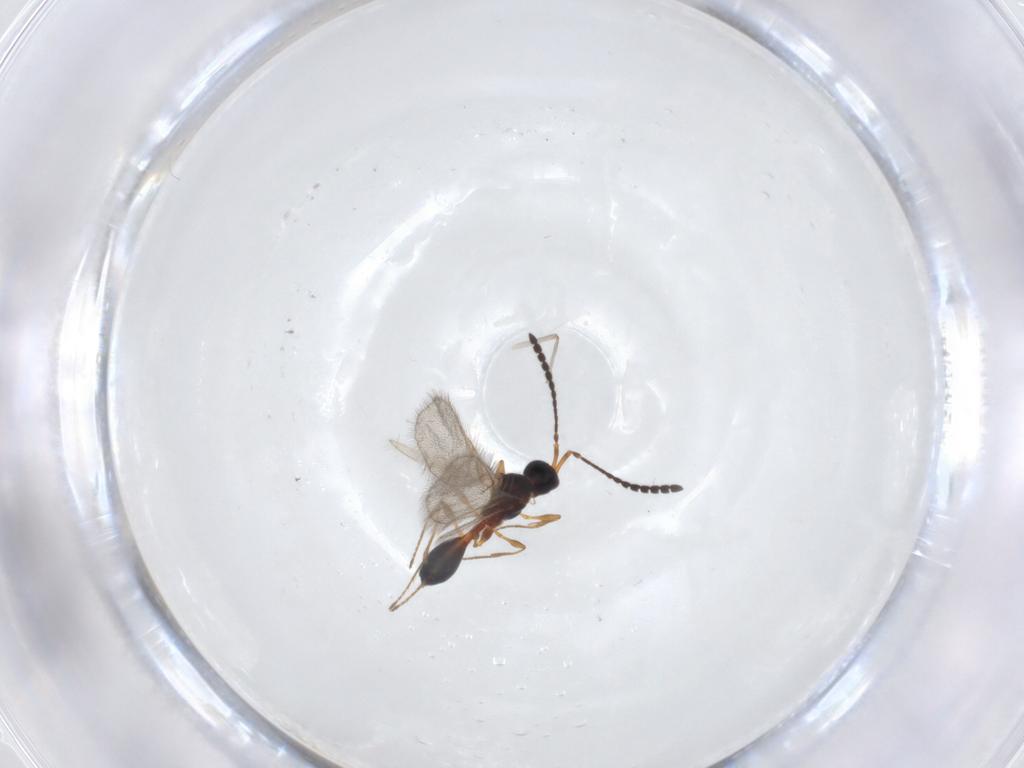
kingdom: Animalia
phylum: Arthropoda
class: Insecta
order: Hymenoptera
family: Diapriidae
